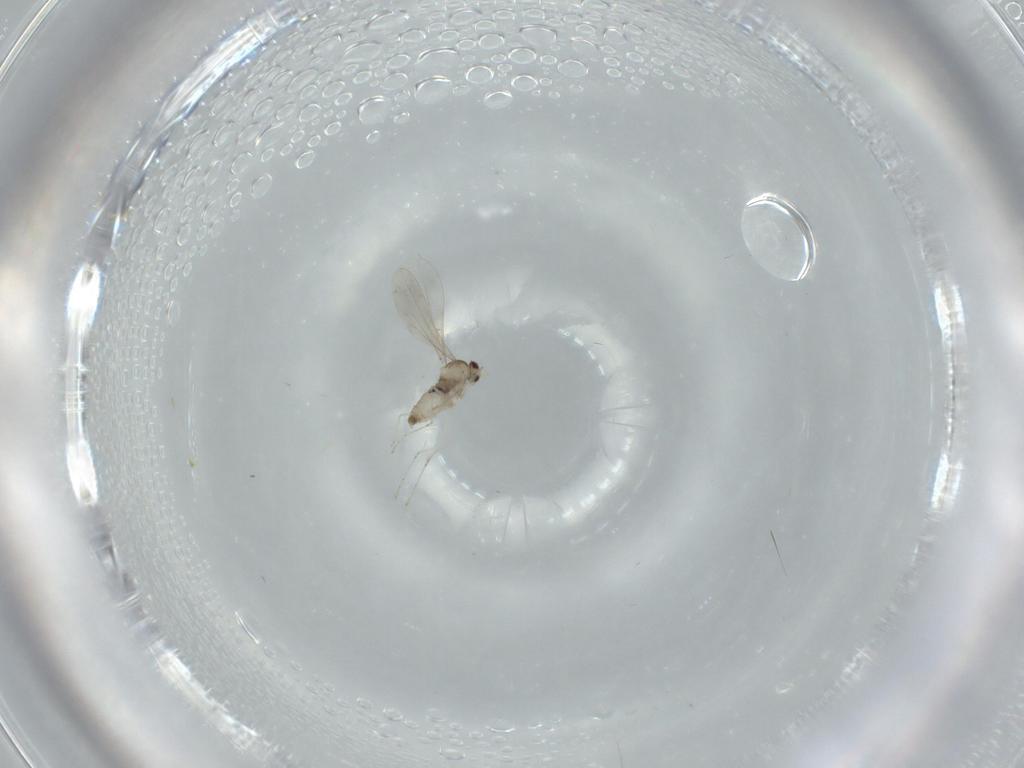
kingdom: Animalia
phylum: Arthropoda
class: Insecta
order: Diptera
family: Cecidomyiidae
